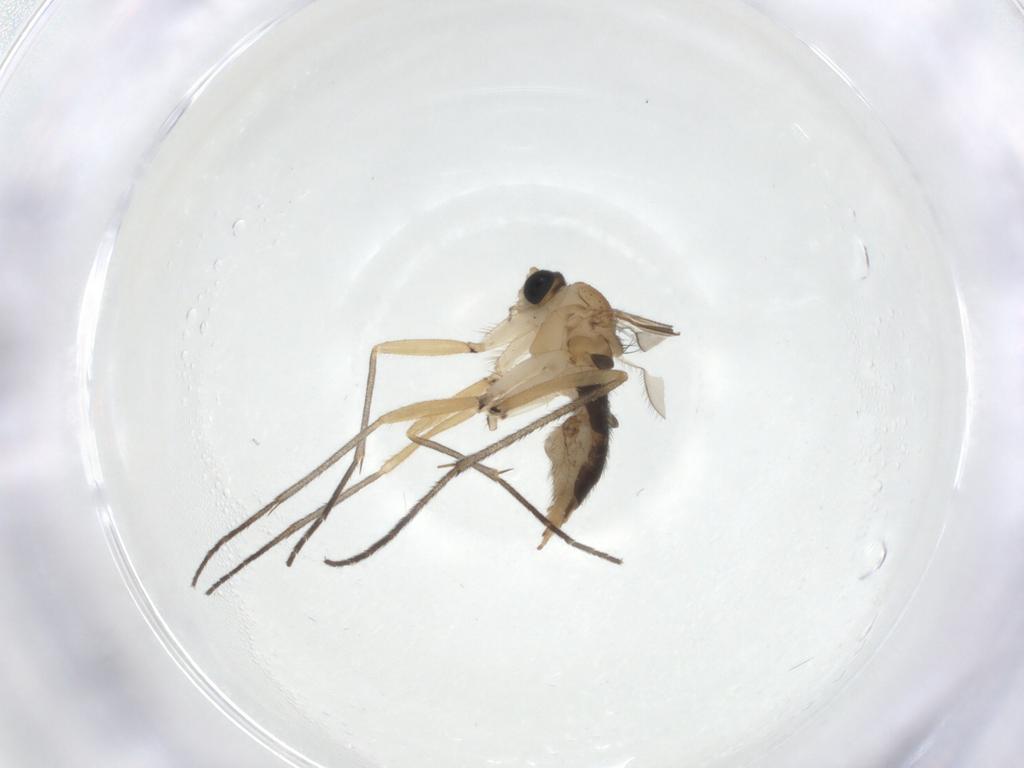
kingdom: Animalia
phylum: Arthropoda
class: Insecta
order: Diptera
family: Sciaridae
